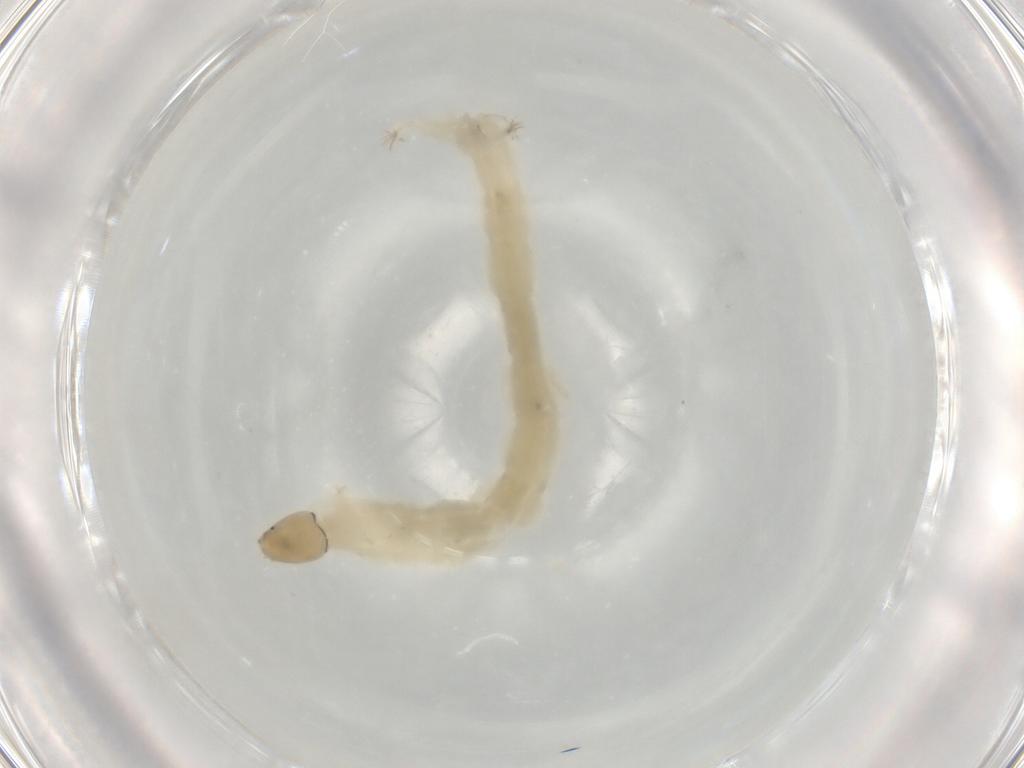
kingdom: Animalia
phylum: Arthropoda
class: Insecta
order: Diptera
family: Chironomidae
